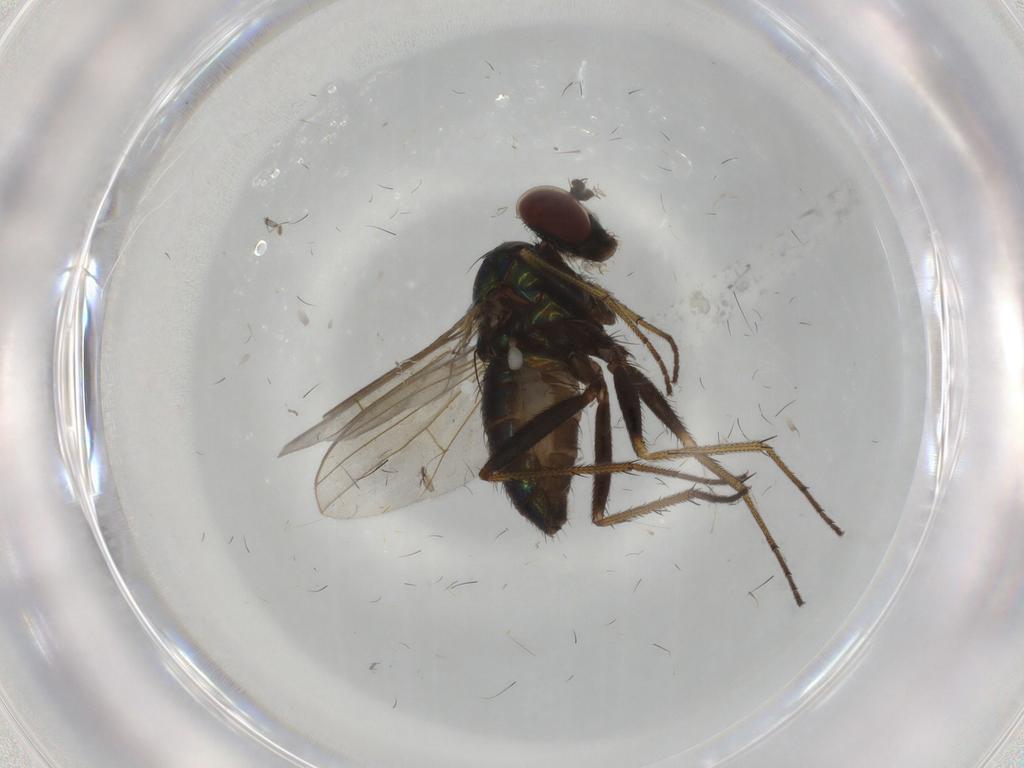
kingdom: Animalia
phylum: Arthropoda
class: Insecta
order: Diptera
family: Dolichopodidae
